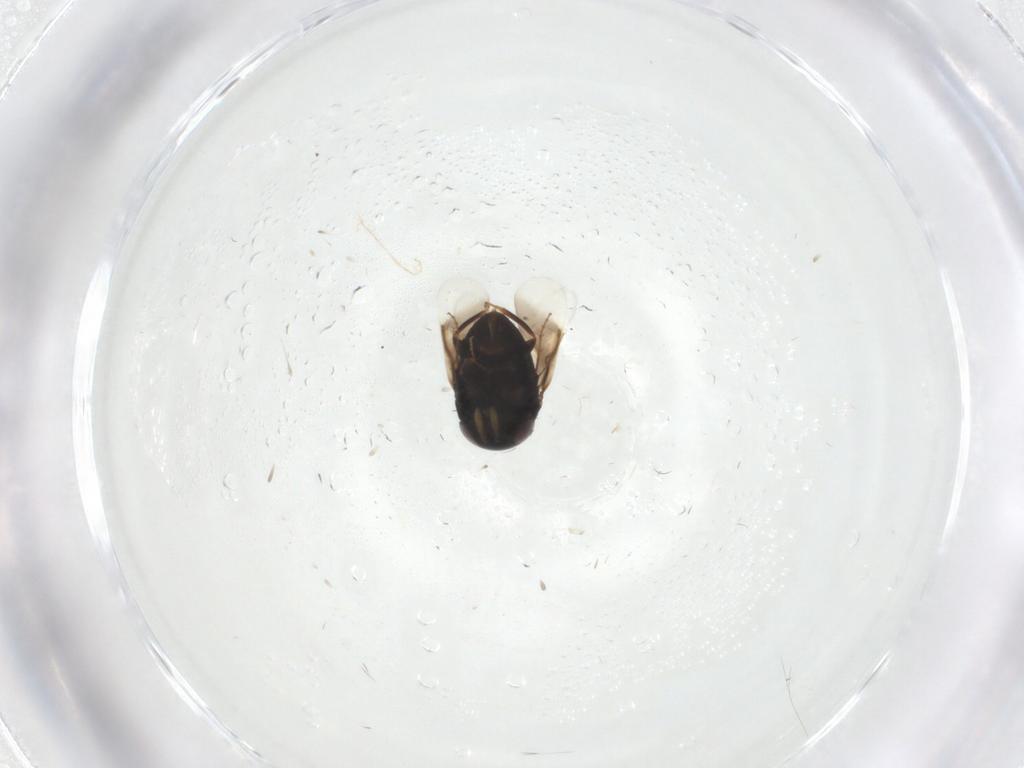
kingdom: Animalia
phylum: Arthropoda
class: Insecta
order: Hymenoptera
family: Signiphoridae
